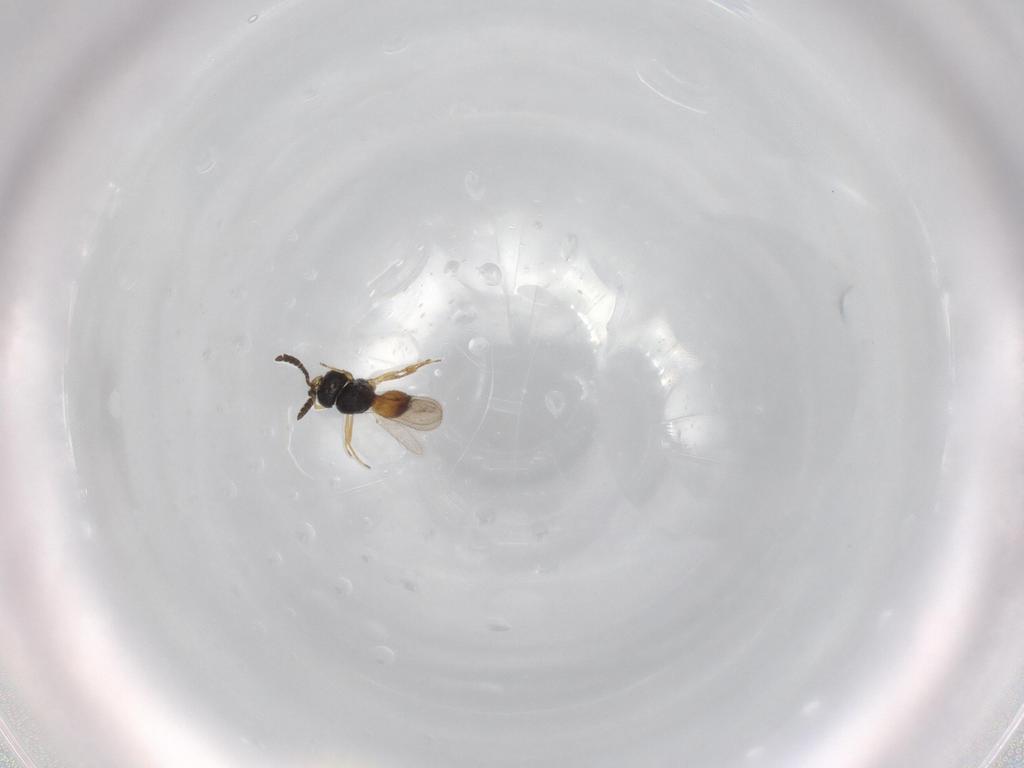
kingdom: Animalia
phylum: Arthropoda
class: Insecta
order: Hymenoptera
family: Scelionidae
